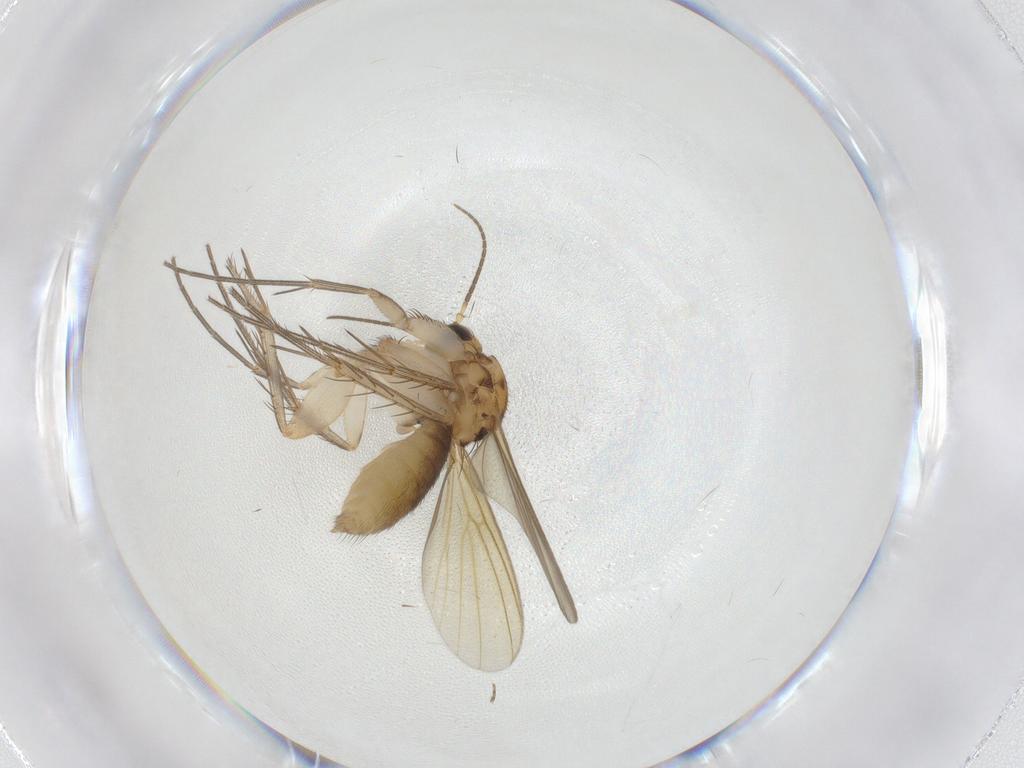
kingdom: Animalia
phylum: Arthropoda
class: Insecta
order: Diptera
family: Mycetophilidae
